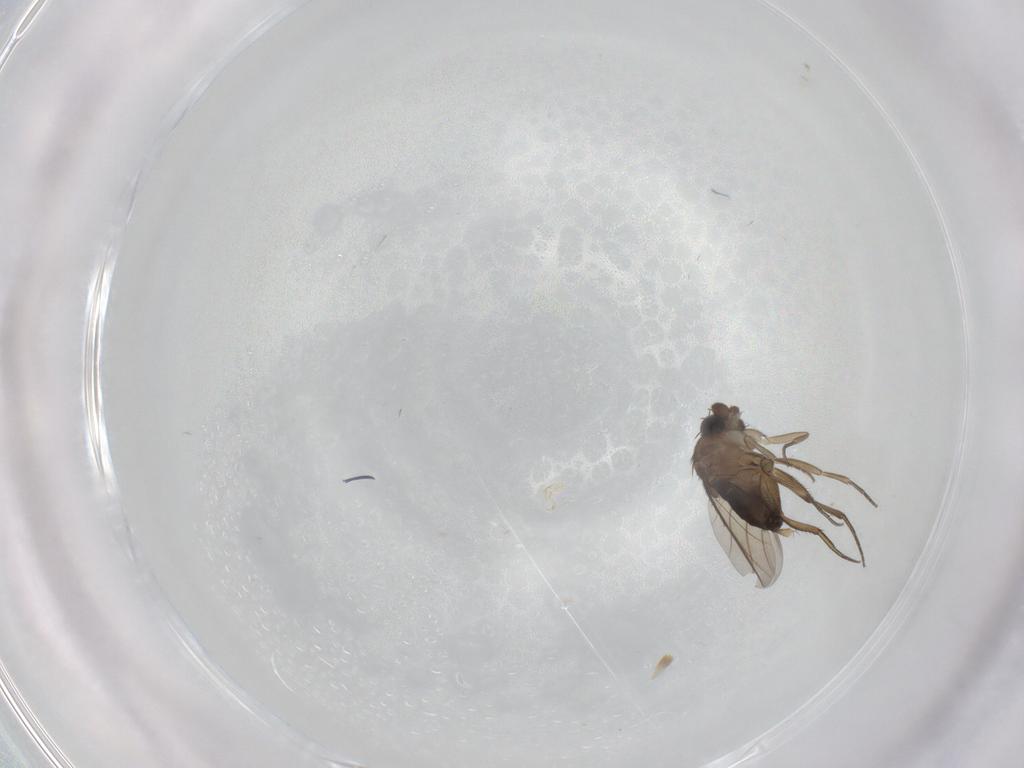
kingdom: Animalia
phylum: Arthropoda
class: Insecta
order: Diptera
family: Phoridae
